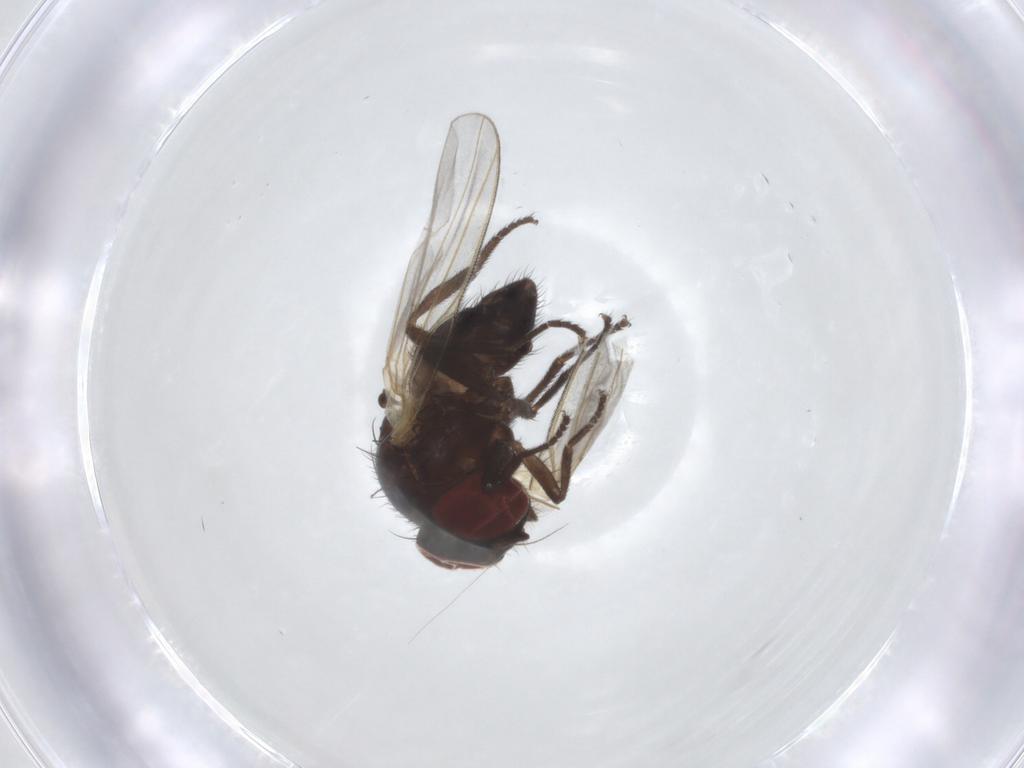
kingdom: Animalia
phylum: Arthropoda
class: Insecta
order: Diptera
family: Lonchaeidae
